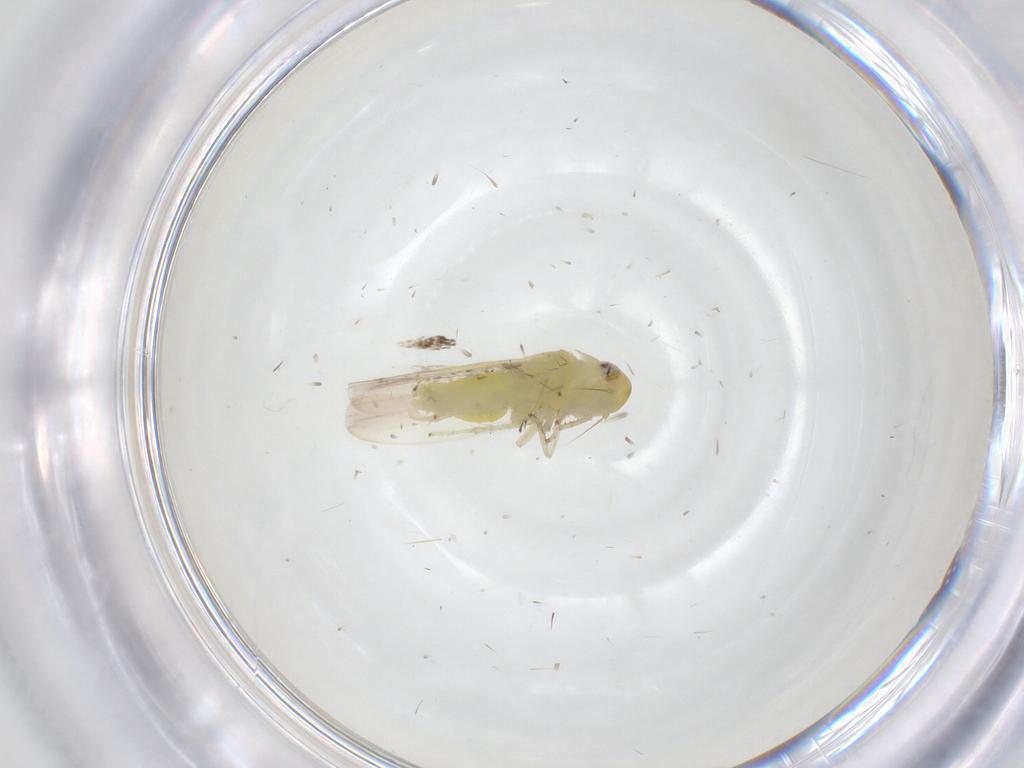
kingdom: Animalia
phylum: Arthropoda
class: Insecta
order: Hemiptera
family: Cicadellidae
